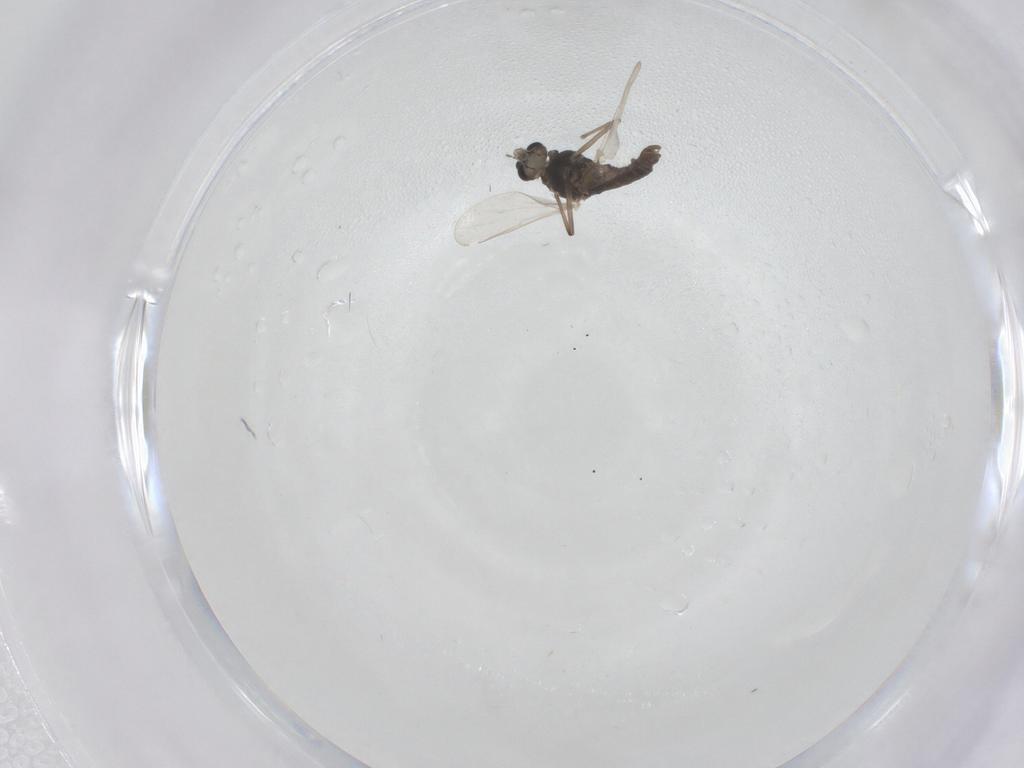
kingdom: Animalia
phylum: Arthropoda
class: Insecta
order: Diptera
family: Chironomidae
